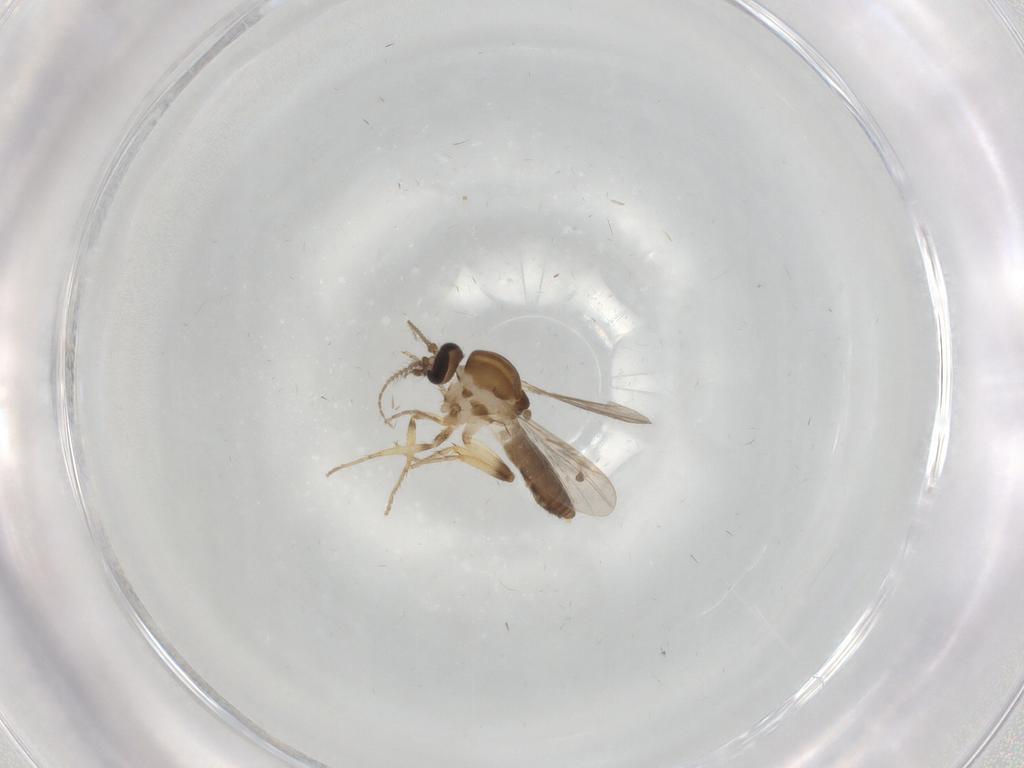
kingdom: Animalia
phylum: Arthropoda
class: Insecta
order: Diptera
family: Ceratopogonidae
